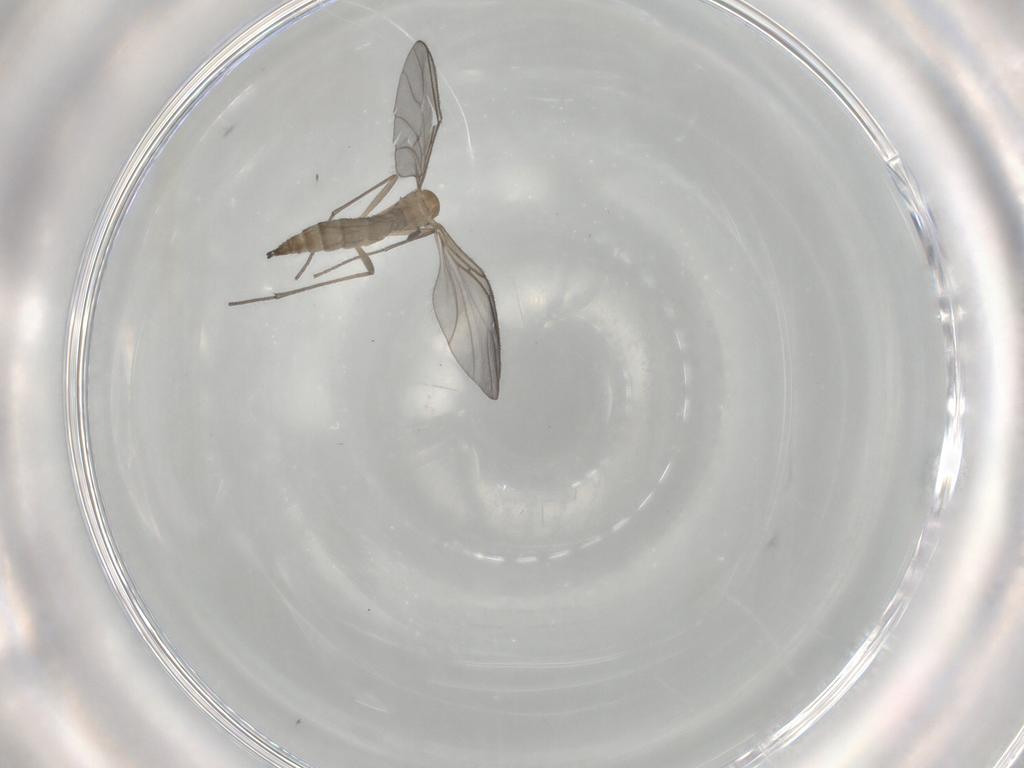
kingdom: Animalia
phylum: Arthropoda
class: Insecta
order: Diptera
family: Sciaridae
